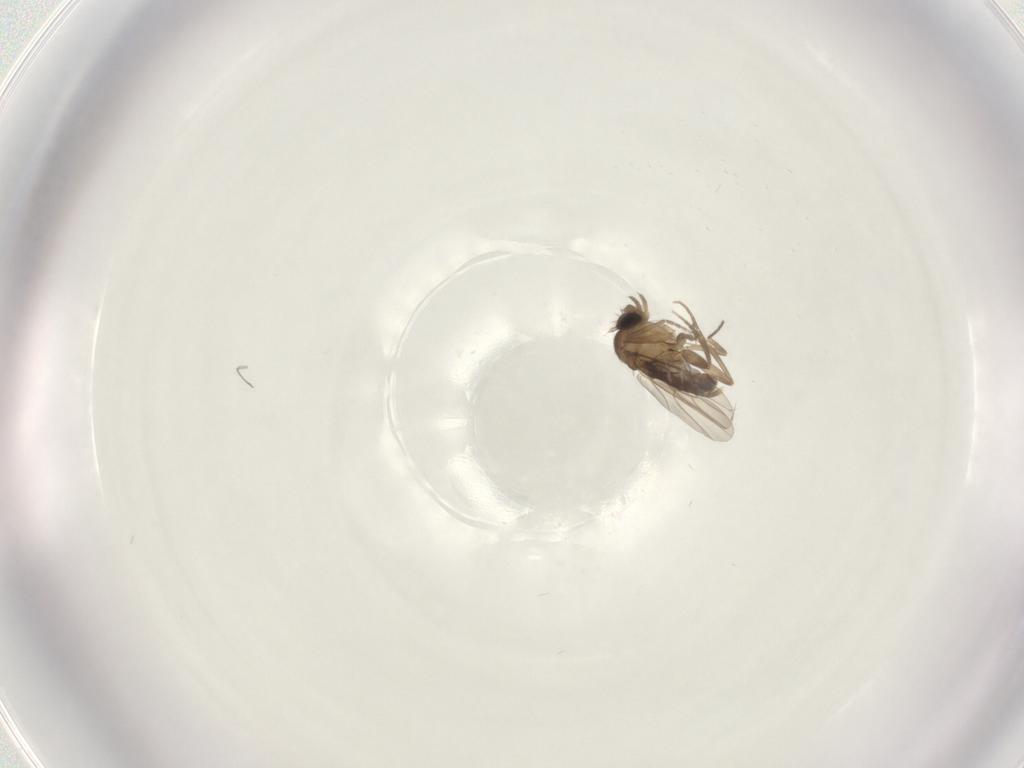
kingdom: Animalia
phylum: Arthropoda
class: Insecta
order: Diptera
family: Phoridae
